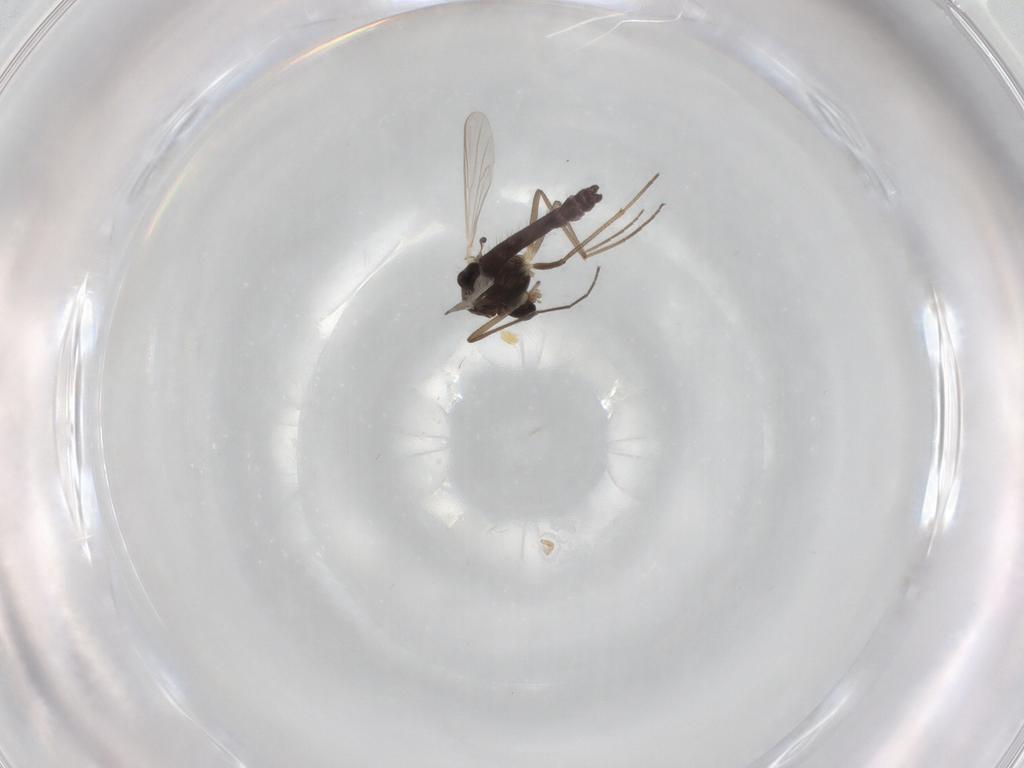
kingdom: Animalia
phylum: Arthropoda
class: Insecta
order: Diptera
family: Chironomidae
